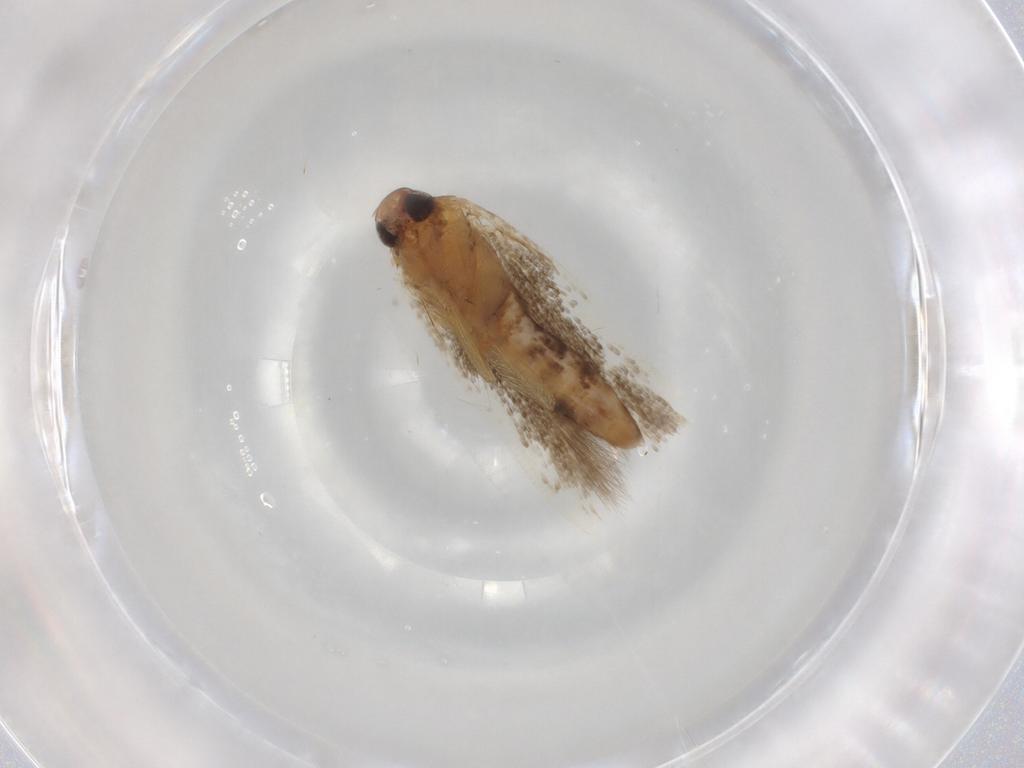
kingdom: Animalia
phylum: Arthropoda
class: Insecta
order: Lepidoptera
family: Cosmopterigidae
